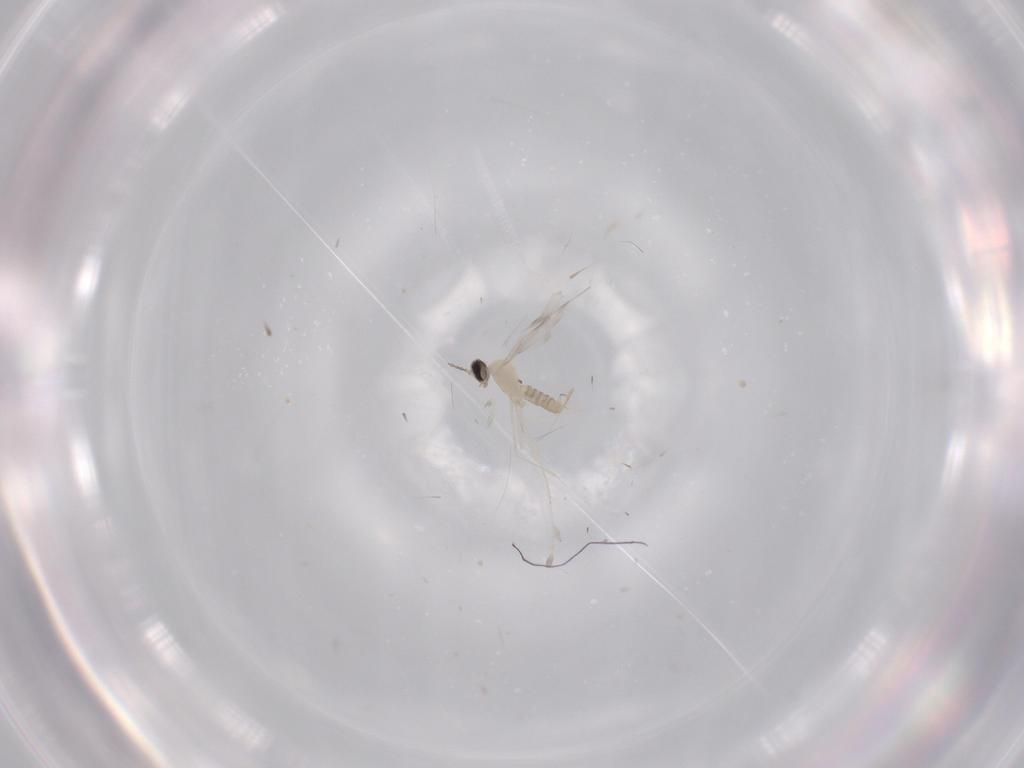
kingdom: Animalia
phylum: Arthropoda
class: Insecta
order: Diptera
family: Cecidomyiidae
